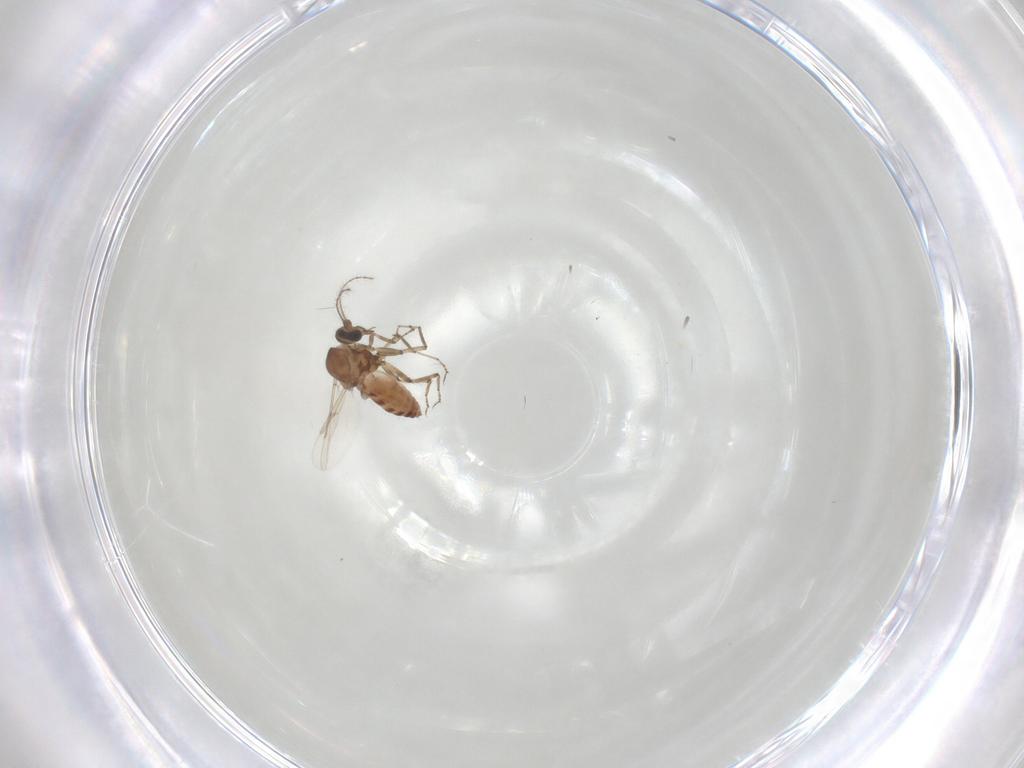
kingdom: Animalia
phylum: Arthropoda
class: Insecta
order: Diptera
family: Ceratopogonidae
